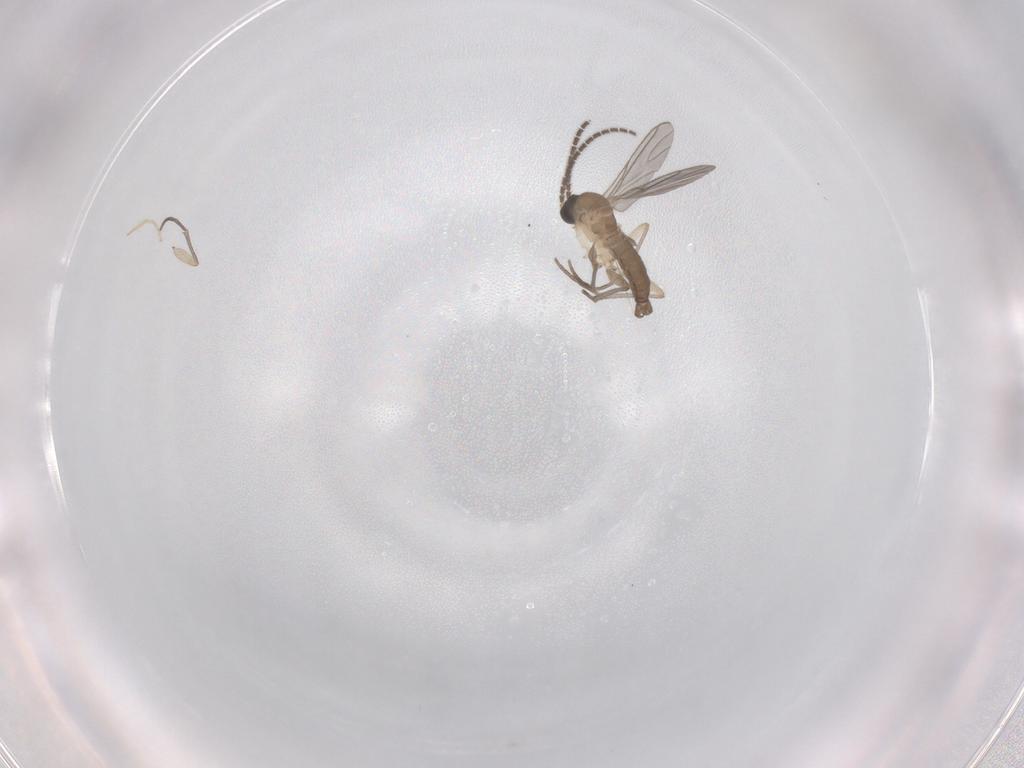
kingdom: Animalia
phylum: Arthropoda
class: Insecta
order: Diptera
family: Sciaridae
